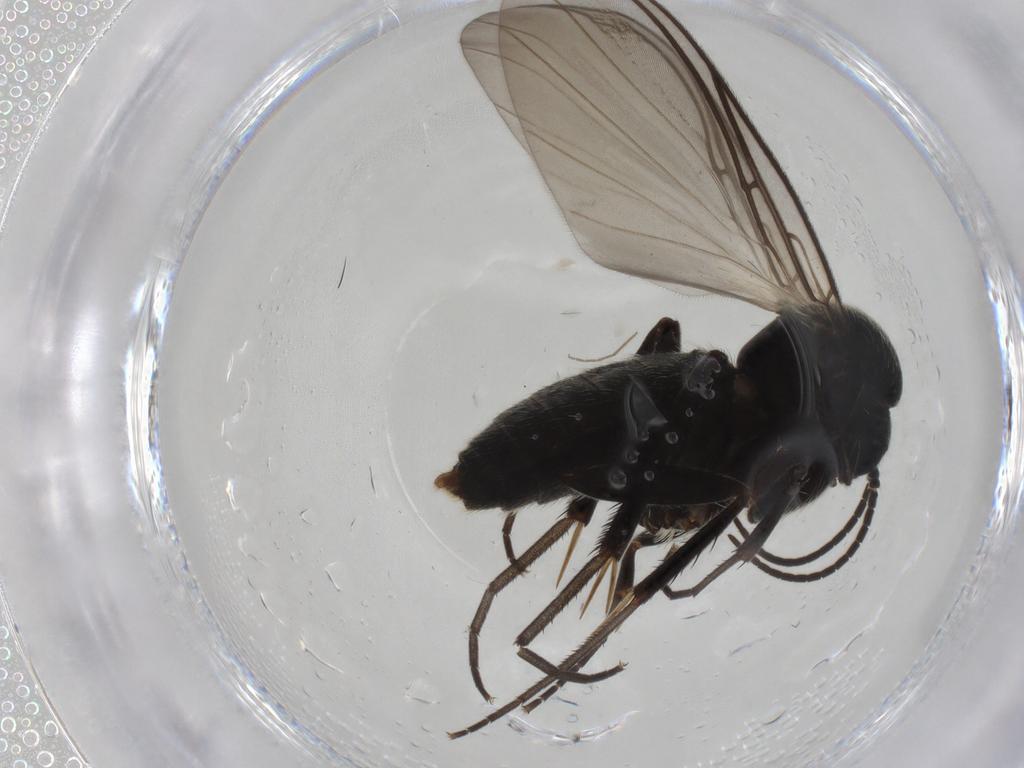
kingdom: Animalia
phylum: Arthropoda
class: Insecta
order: Diptera
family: Mycetophilidae
